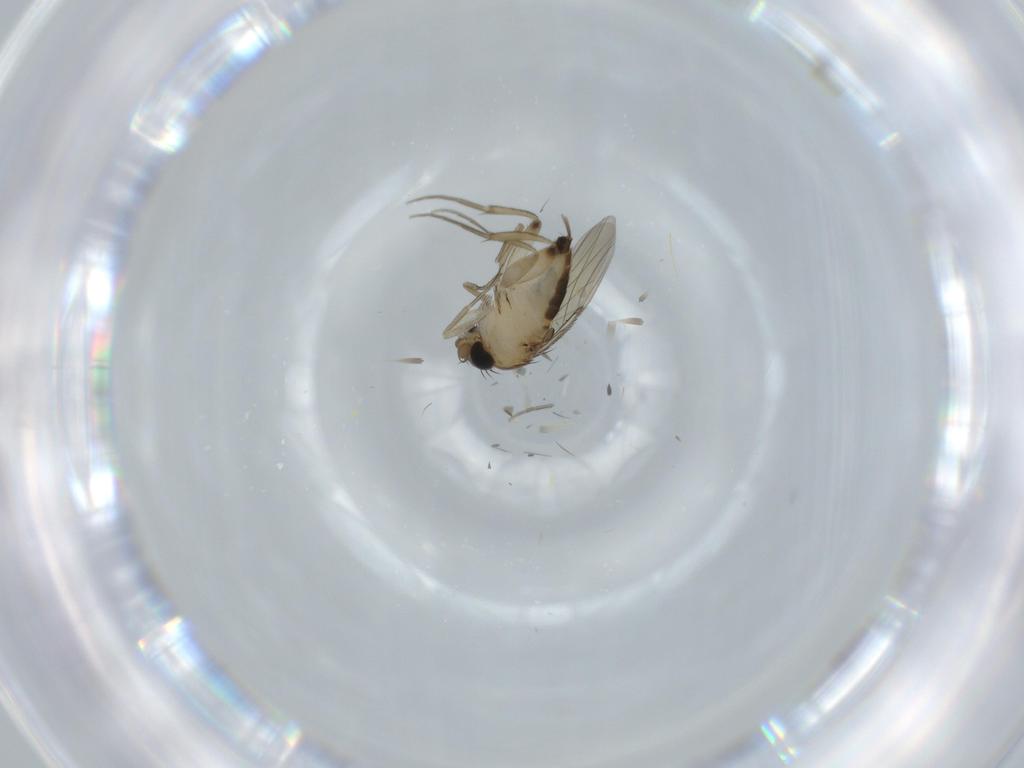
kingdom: Animalia
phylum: Arthropoda
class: Insecta
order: Diptera
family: Phoridae
